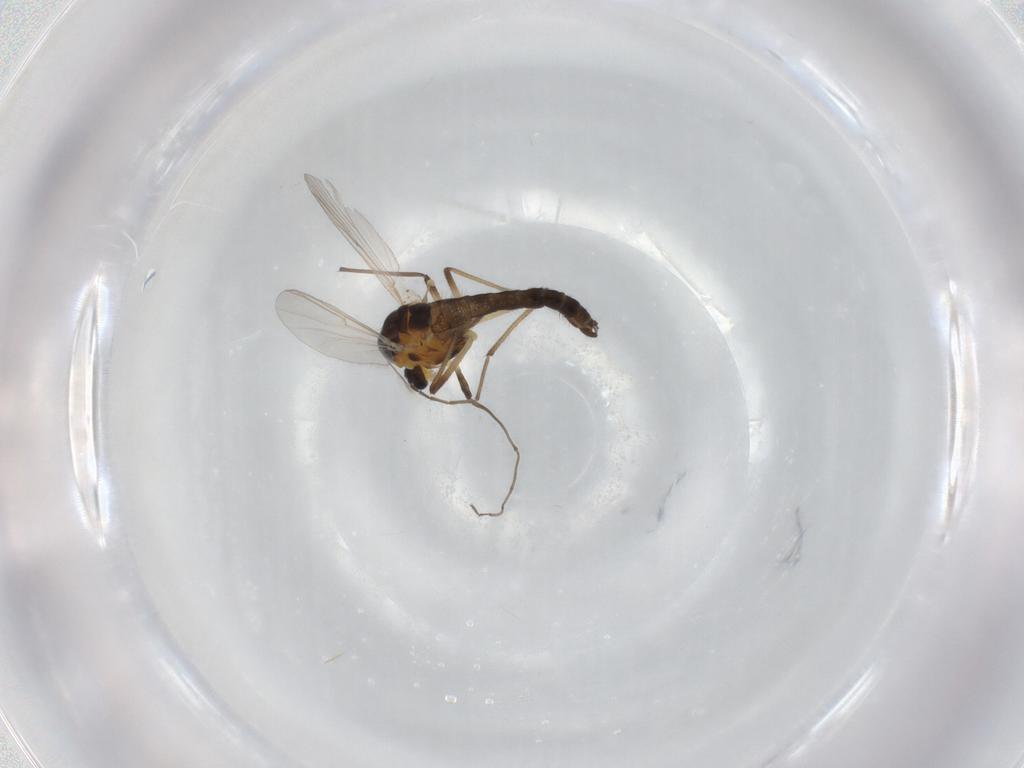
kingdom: Animalia
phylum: Arthropoda
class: Insecta
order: Diptera
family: Chironomidae
